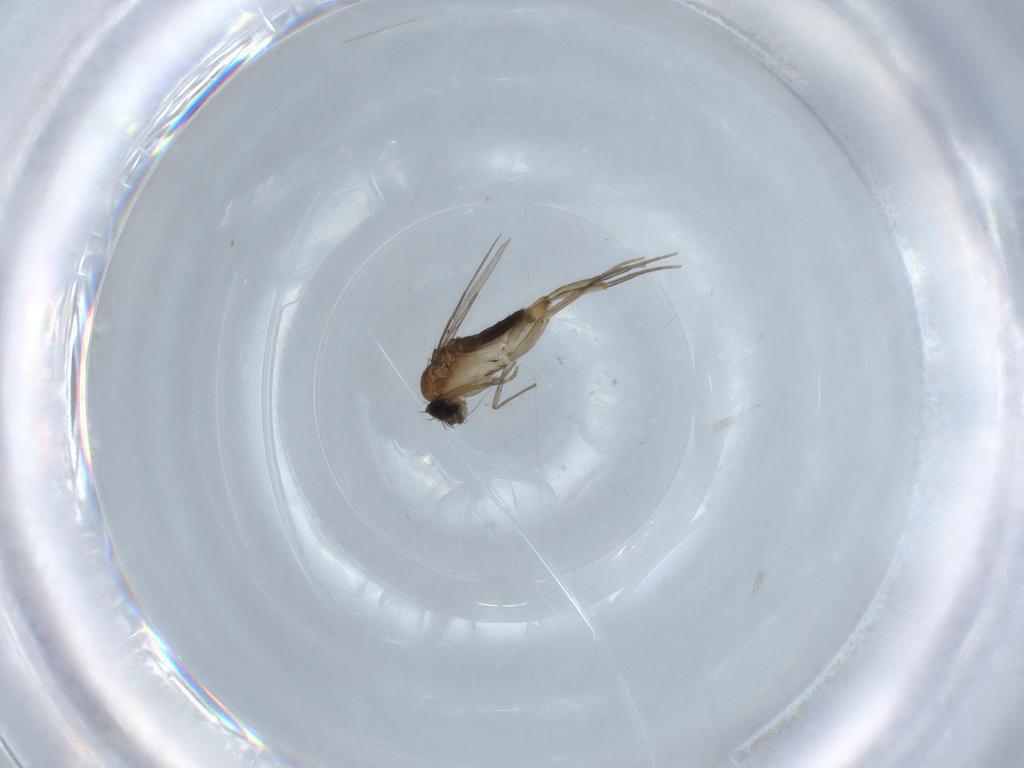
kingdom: Animalia
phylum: Arthropoda
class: Insecta
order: Diptera
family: Phoridae
